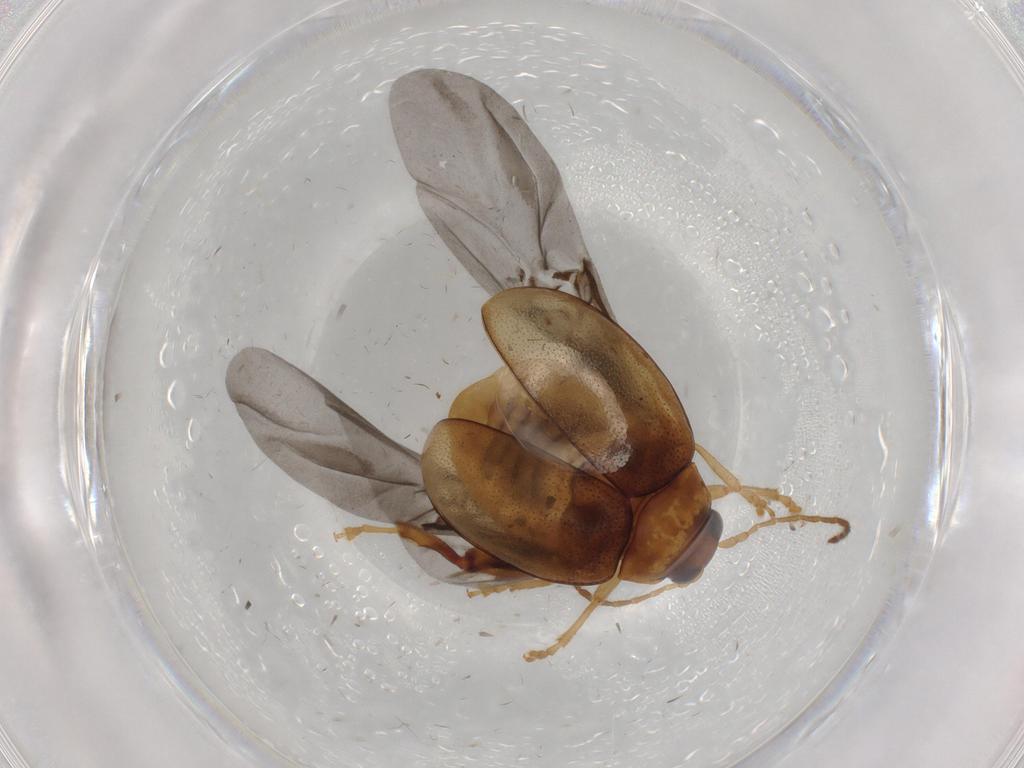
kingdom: Animalia
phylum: Arthropoda
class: Insecta
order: Coleoptera
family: Chrysomelidae
